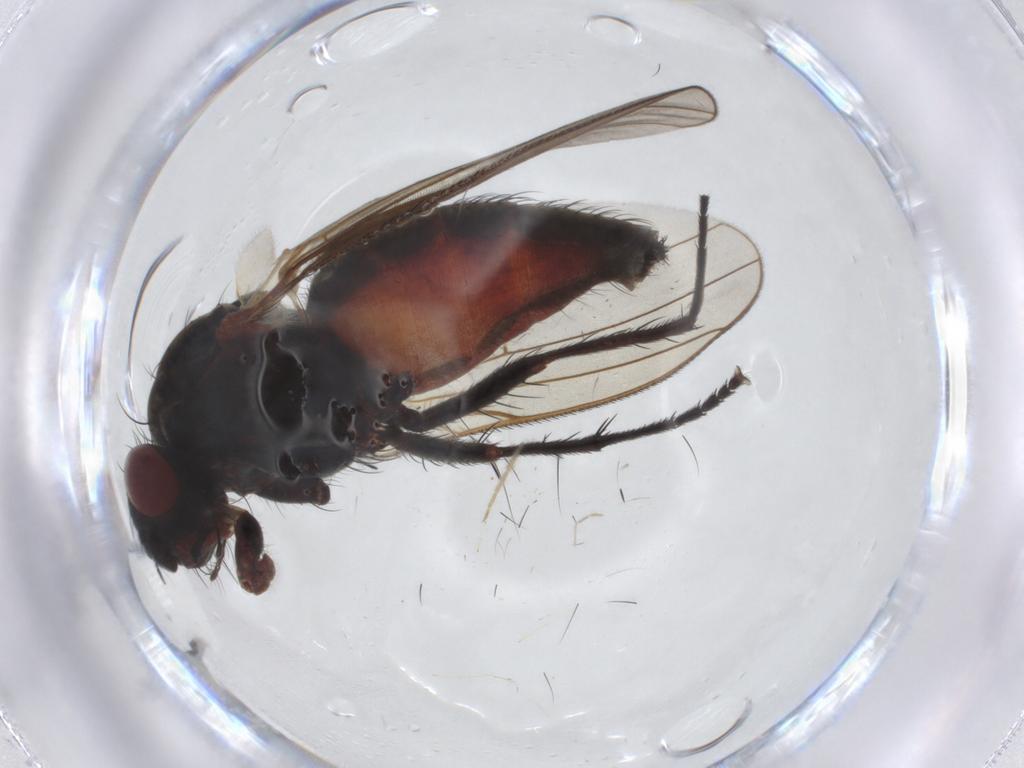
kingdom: Animalia
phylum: Arthropoda
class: Insecta
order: Diptera
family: Anthomyiidae
